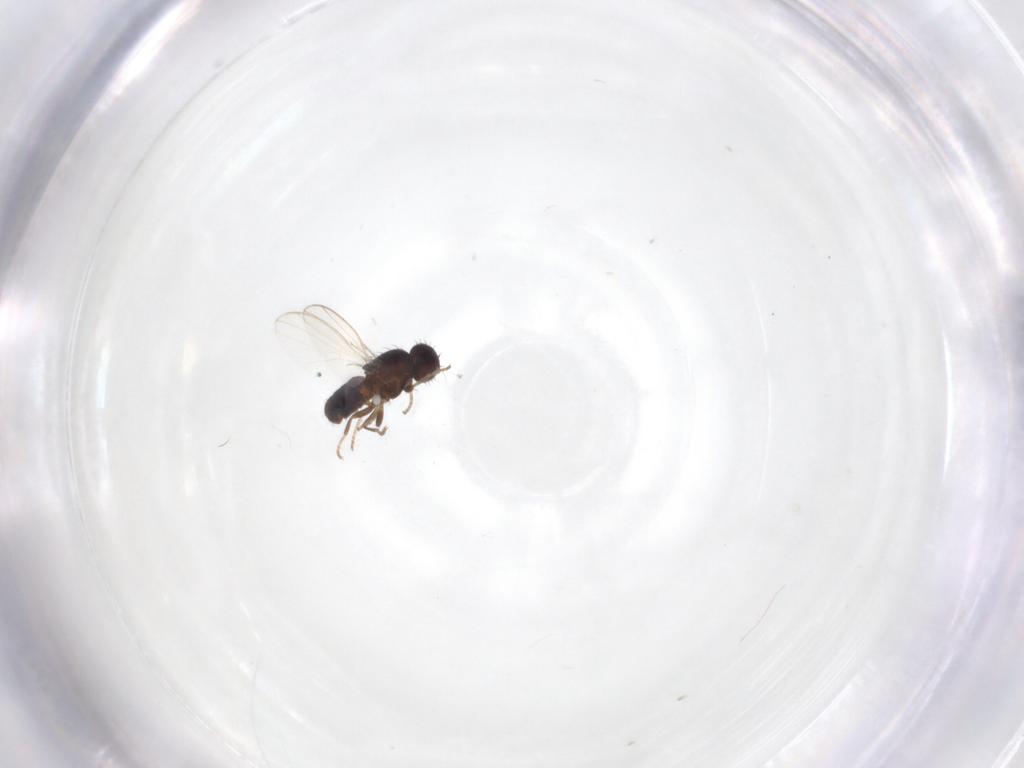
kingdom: Animalia
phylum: Arthropoda
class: Insecta
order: Diptera
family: Carnidae
